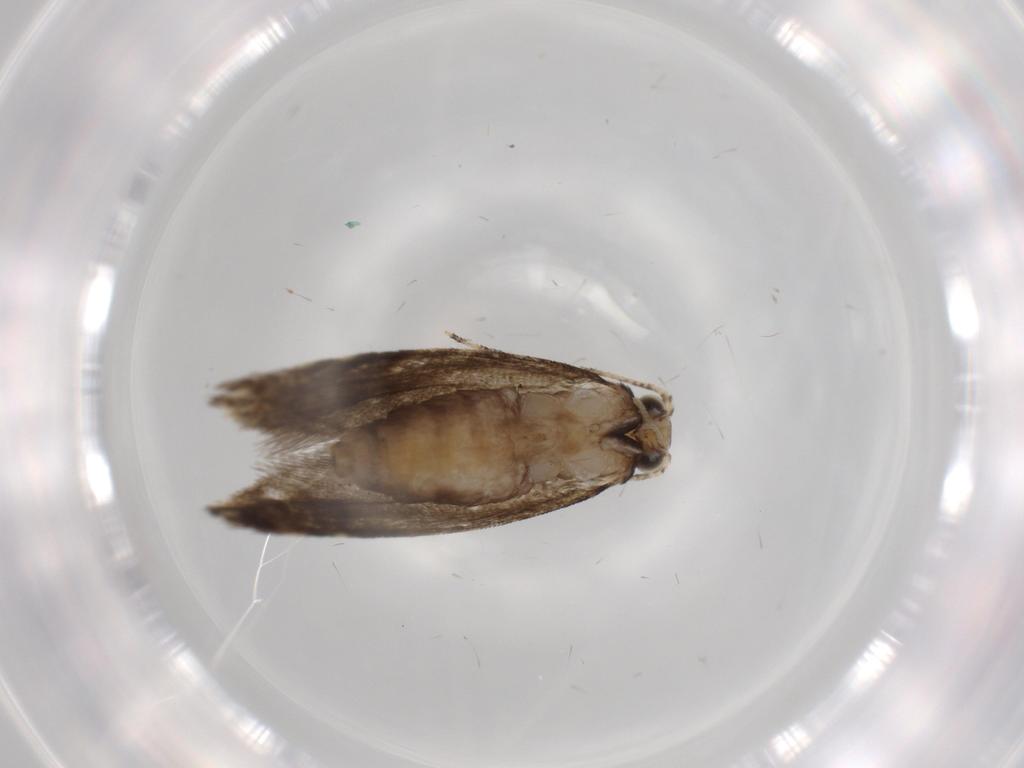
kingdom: Animalia
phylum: Arthropoda
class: Insecta
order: Lepidoptera
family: Tineidae
